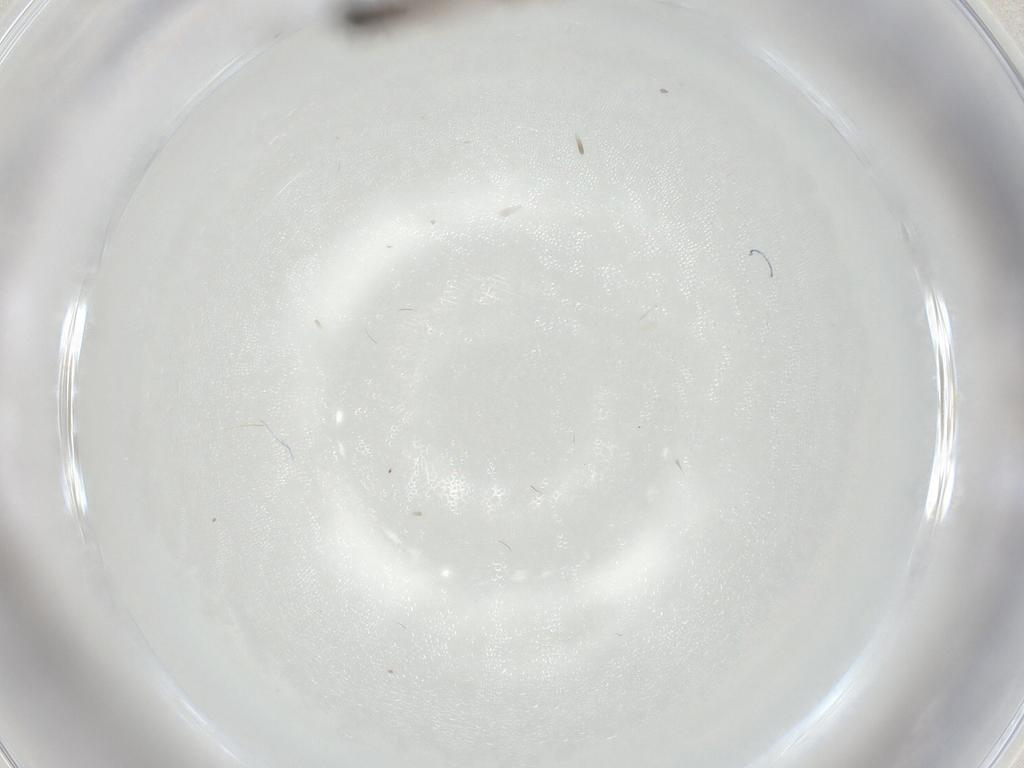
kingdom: Animalia
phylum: Arthropoda
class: Insecta
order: Diptera
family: Ceratopogonidae
